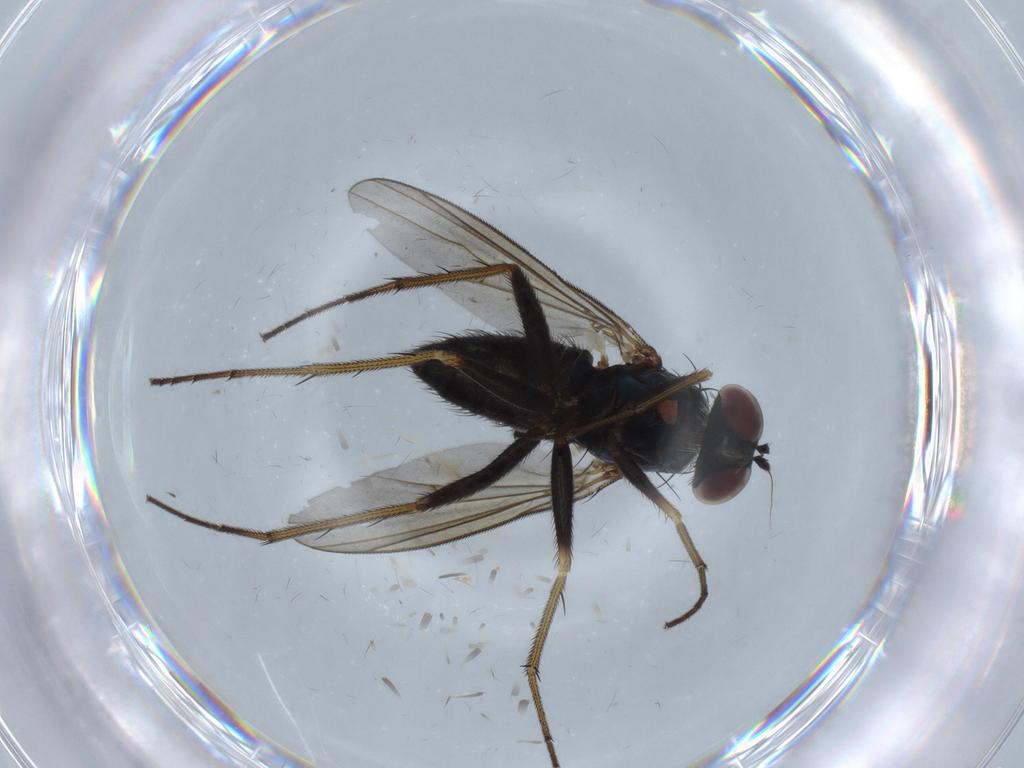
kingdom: Animalia
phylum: Arthropoda
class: Insecta
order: Diptera
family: Dolichopodidae
